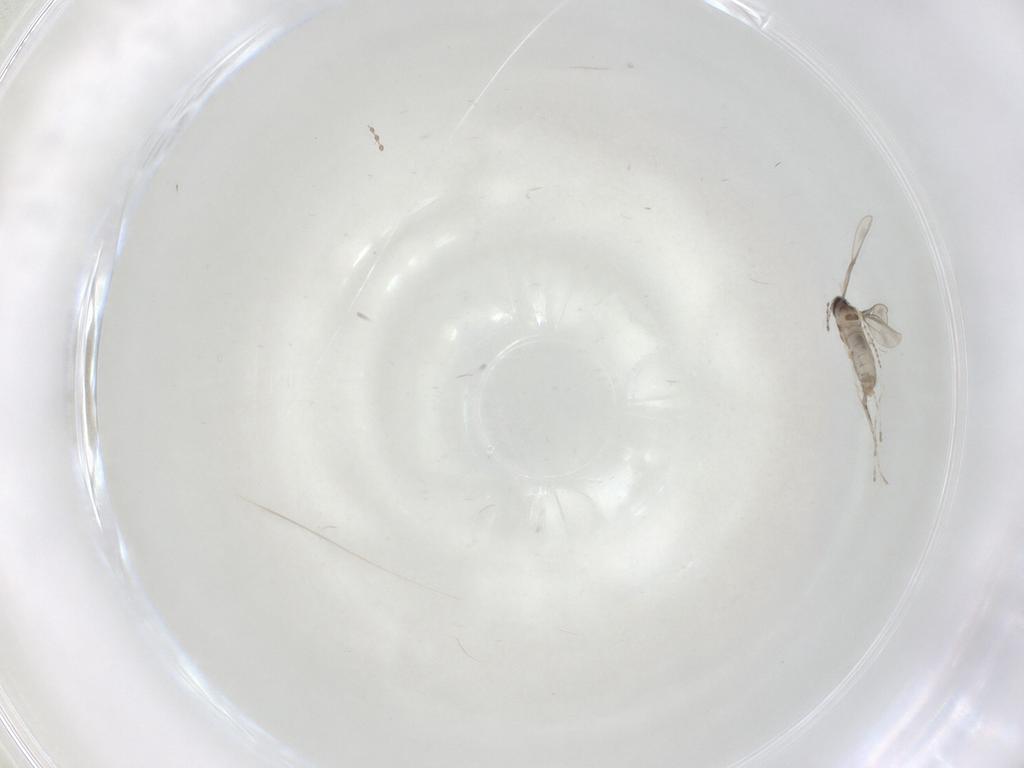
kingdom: Animalia
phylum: Arthropoda
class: Insecta
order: Diptera
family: Cecidomyiidae
